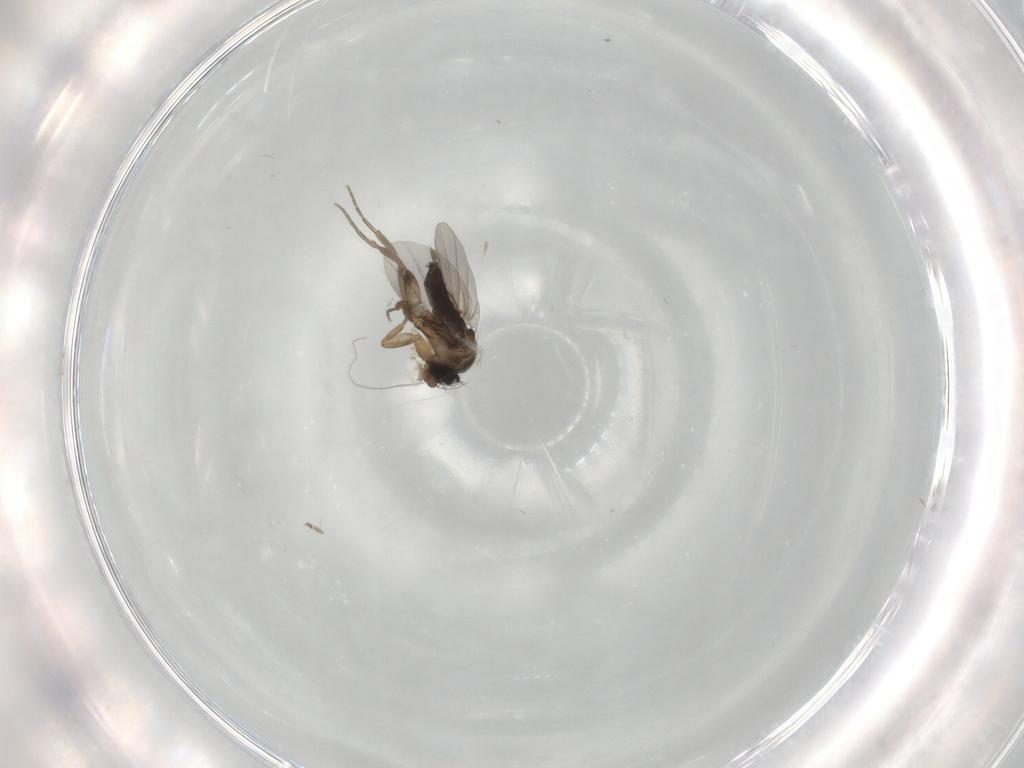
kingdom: Animalia
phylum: Arthropoda
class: Insecta
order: Diptera
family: Phoridae
